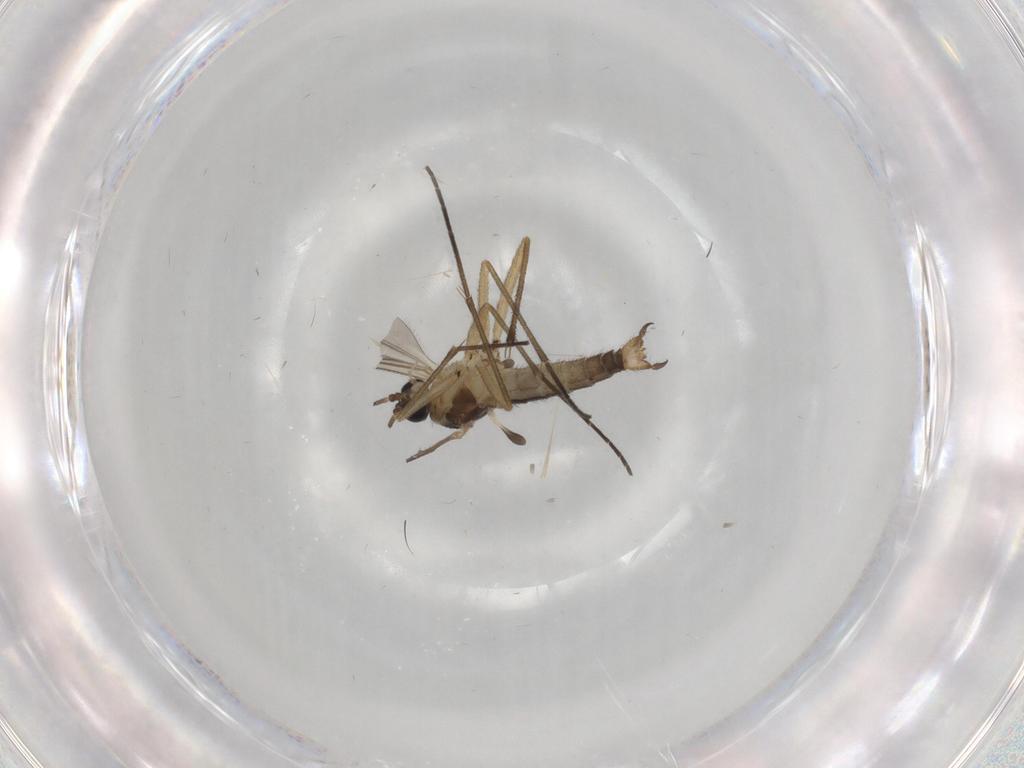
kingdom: Animalia
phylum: Arthropoda
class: Insecta
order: Diptera
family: Sciaridae
